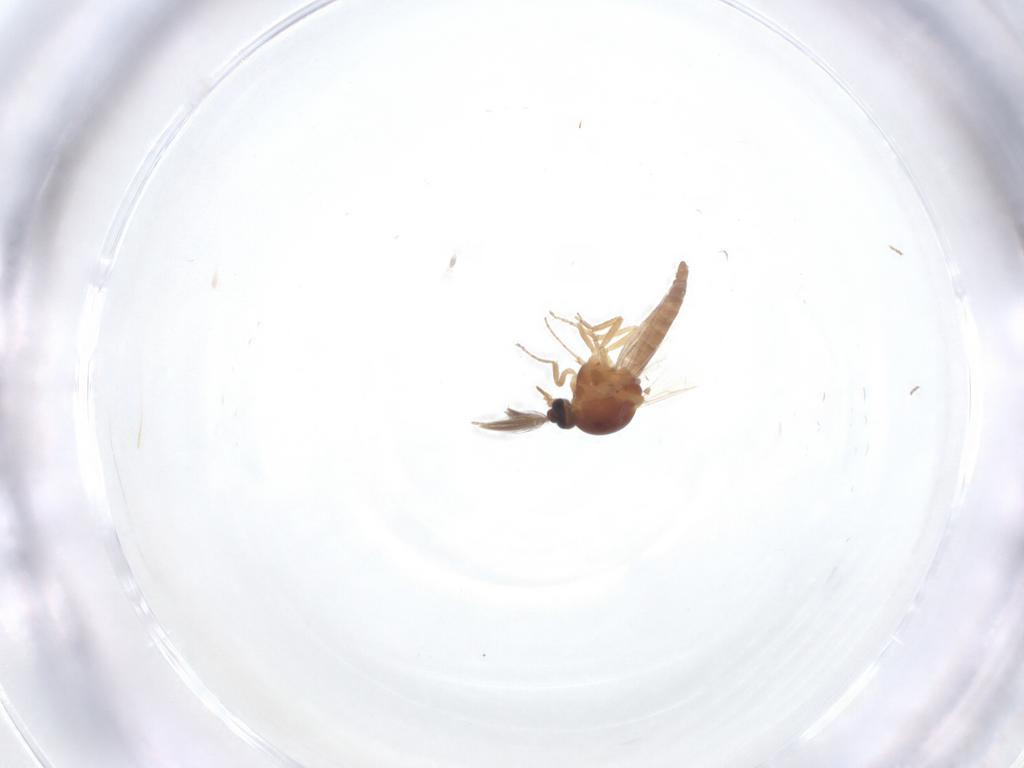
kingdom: Animalia
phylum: Arthropoda
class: Insecta
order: Diptera
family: Ceratopogonidae
